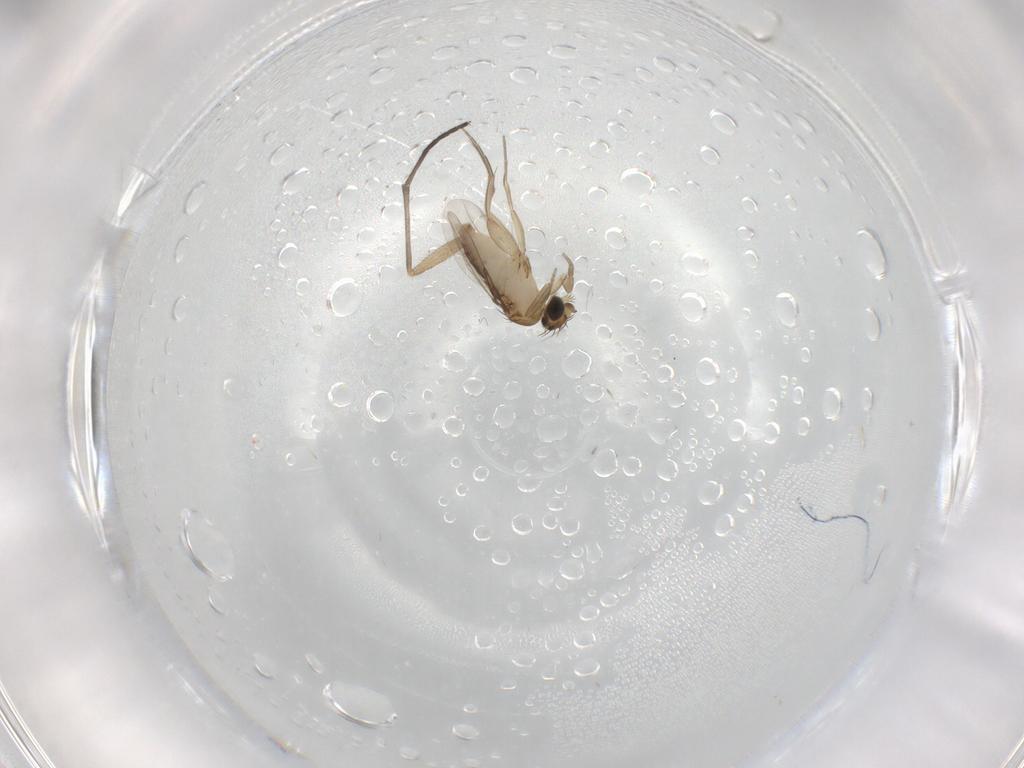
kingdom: Animalia
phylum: Arthropoda
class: Insecta
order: Diptera
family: Phoridae
